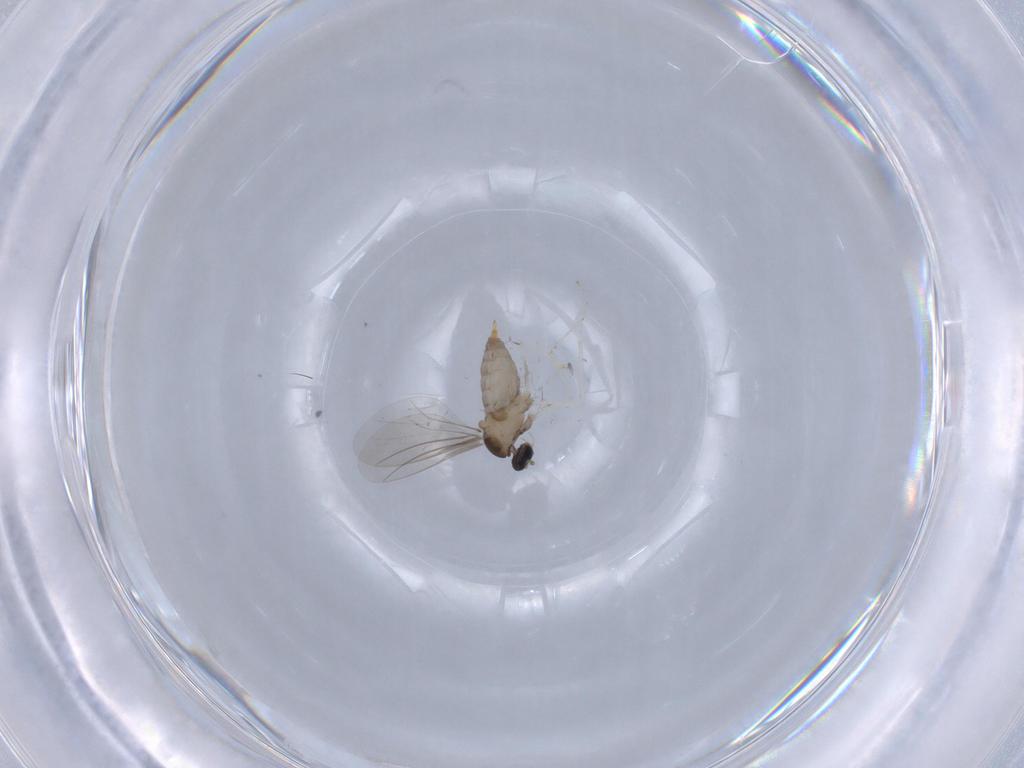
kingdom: Animalia
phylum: Arthropoda
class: Insecta
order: Diptera
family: Cecidomyiidae
